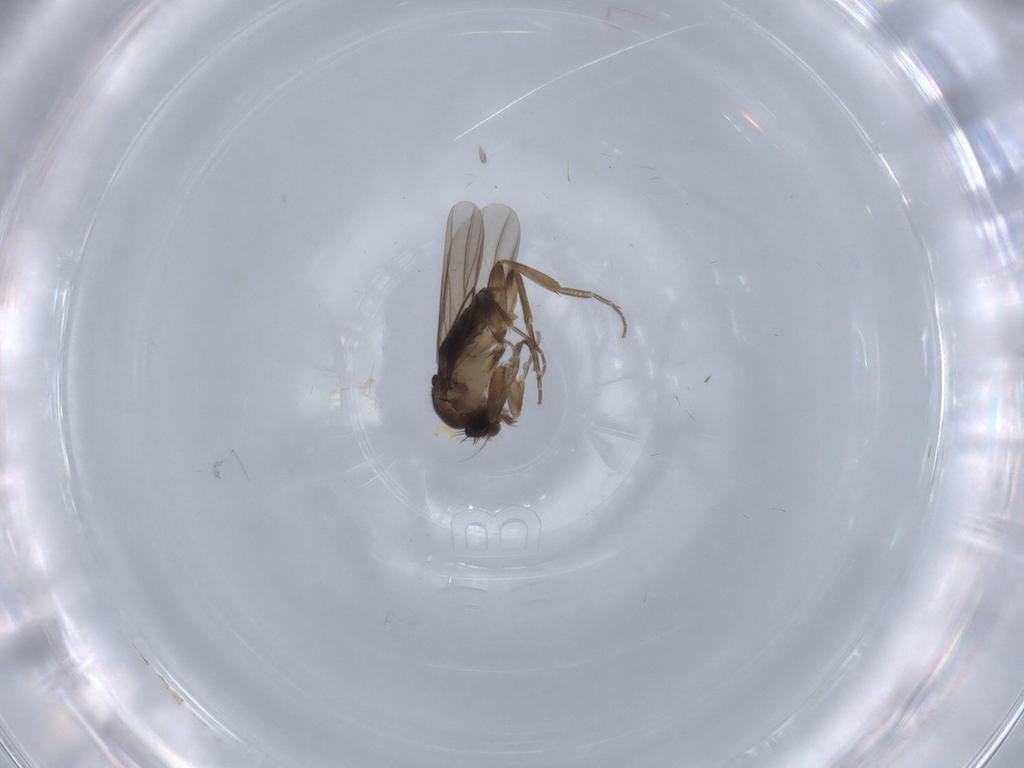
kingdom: Animalia
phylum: Arthropoda
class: Insecta
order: Diptera
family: Phoridae
